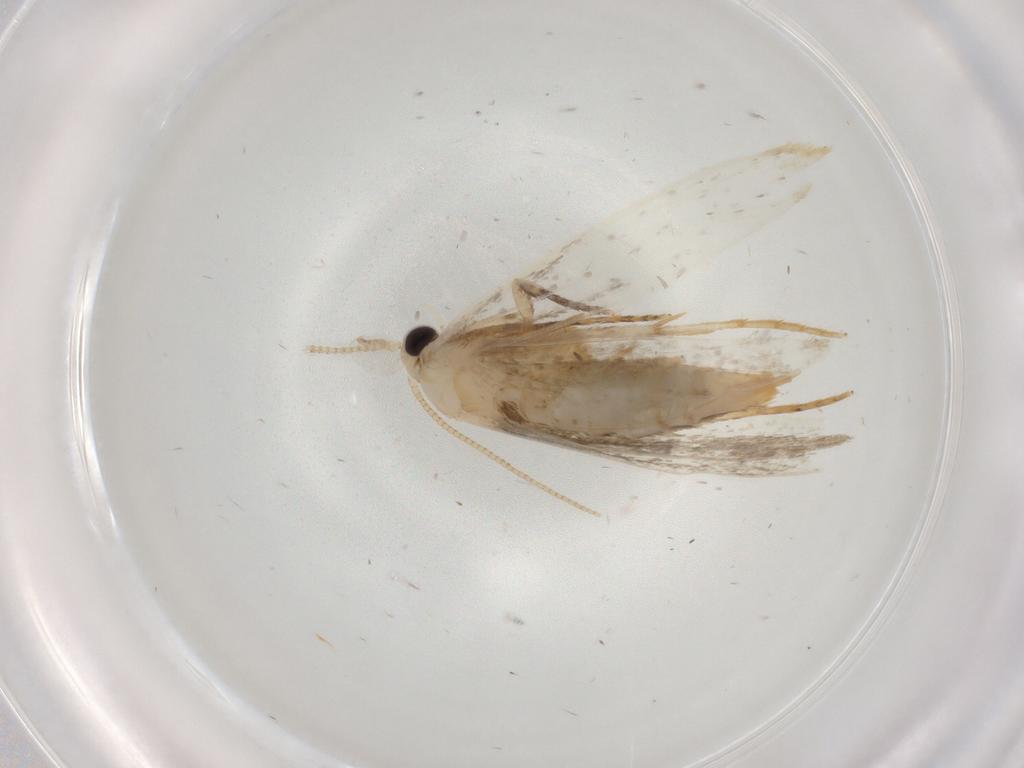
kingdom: Animalia
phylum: Arthropoda
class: Insecta
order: Lepidoptera
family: Tineidae
